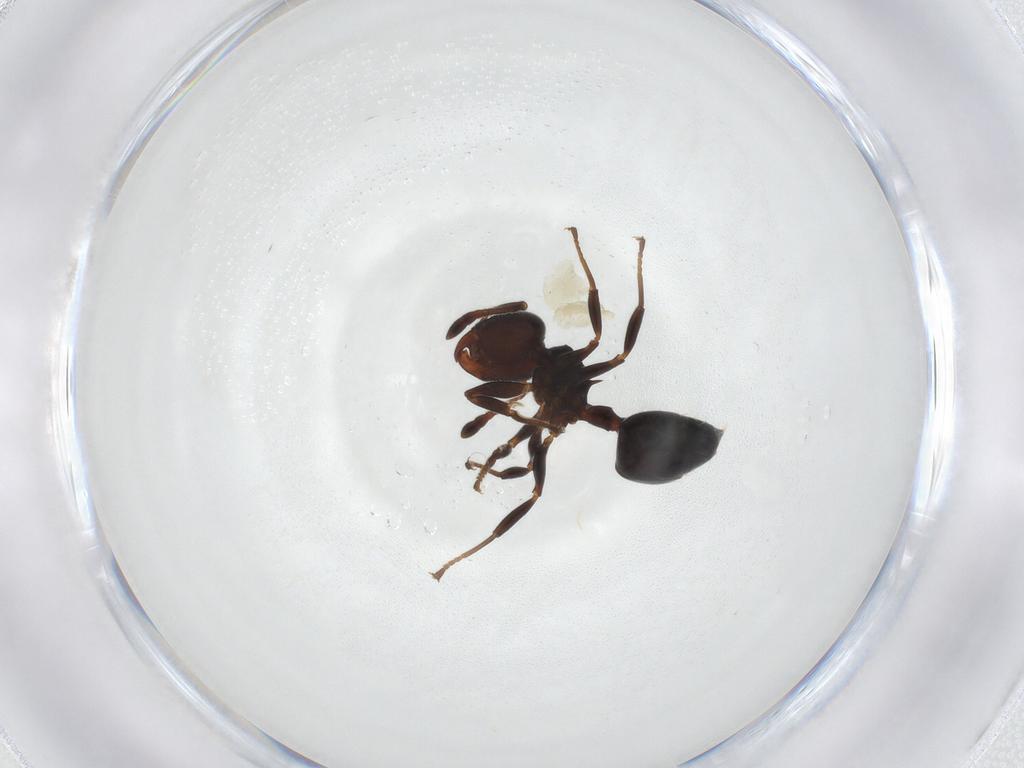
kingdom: Animalia
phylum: Arthropoda
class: Insecta
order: Hymenoptera
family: Formicidae
